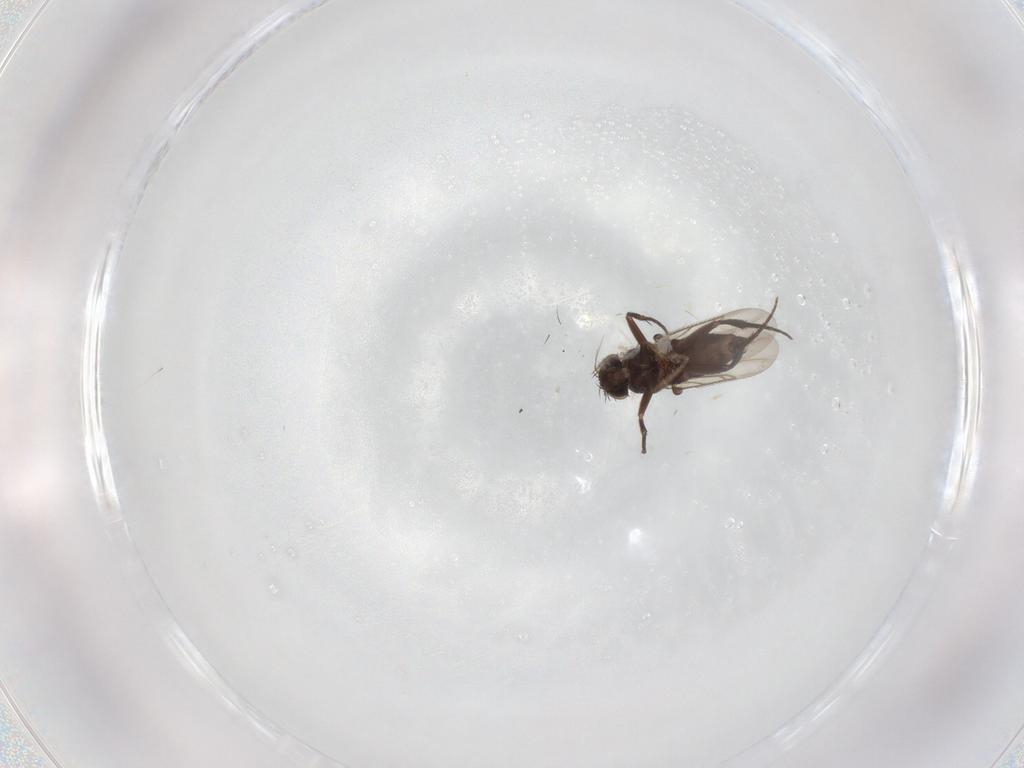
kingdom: Animalia
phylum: Arthropoda
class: Insecta
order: Diptera
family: Phoridae
